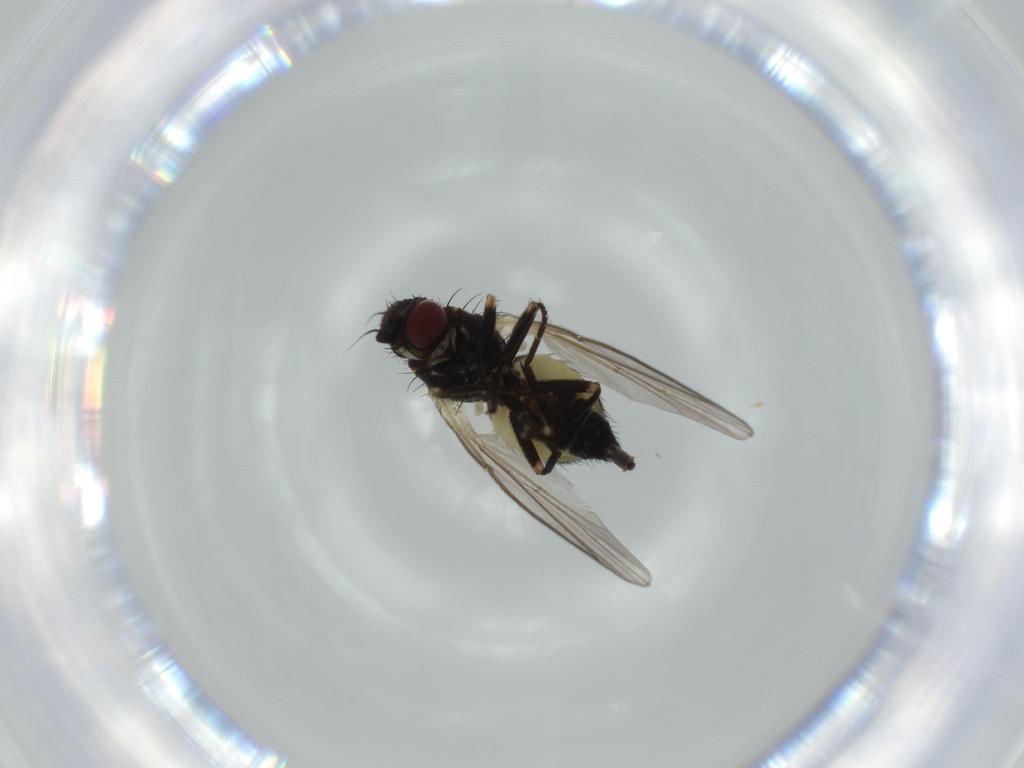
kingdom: Animalia
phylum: Arthropoda
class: Insecta
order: Diptera
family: Chironomidae
